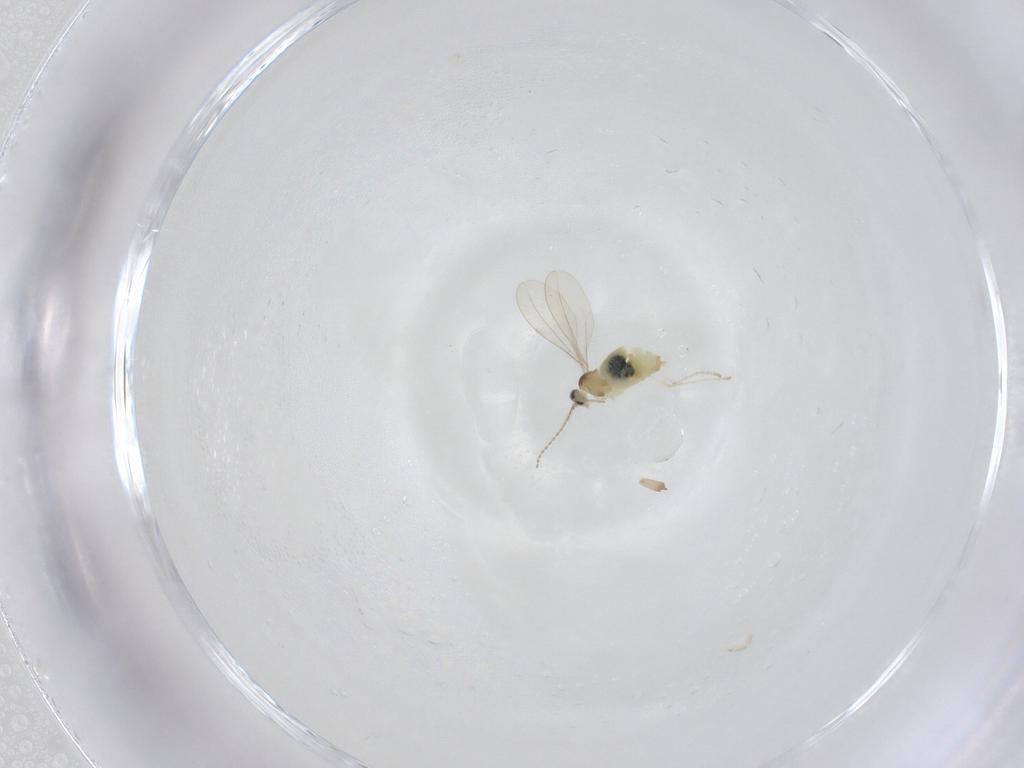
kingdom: Animalia
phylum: Arthropoda
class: Insecta
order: Diptera
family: Cecidomyiidae
